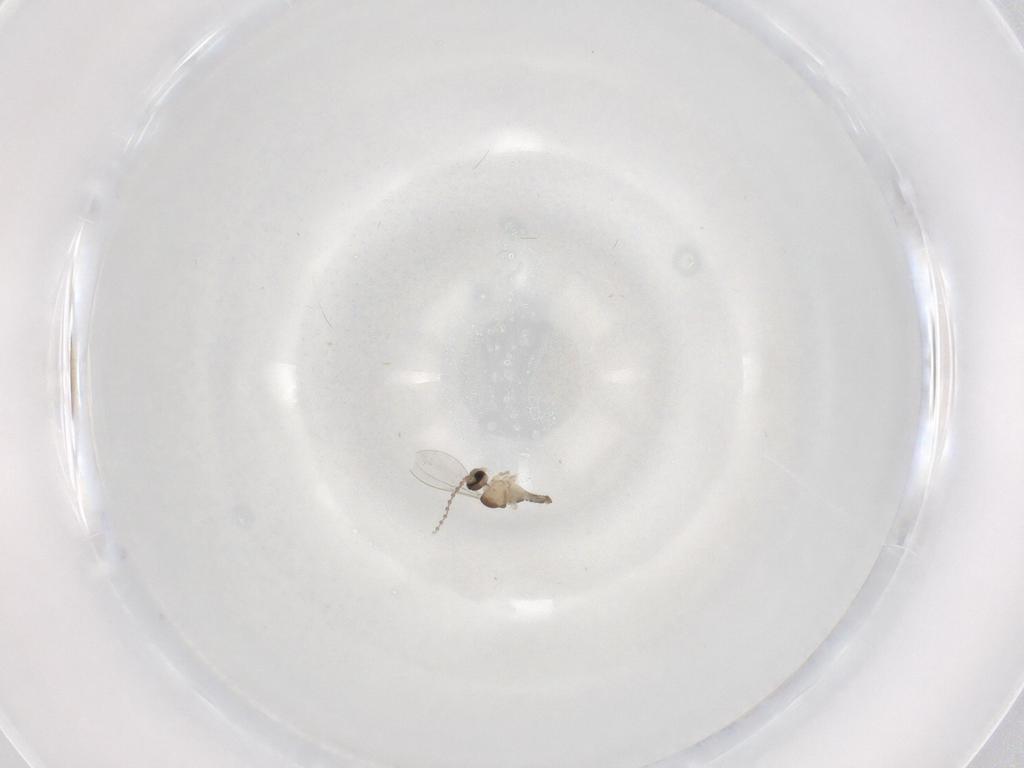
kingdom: Animalia
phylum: Arthropoda
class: Insecta
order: Diptera
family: Cecidomyiidae
